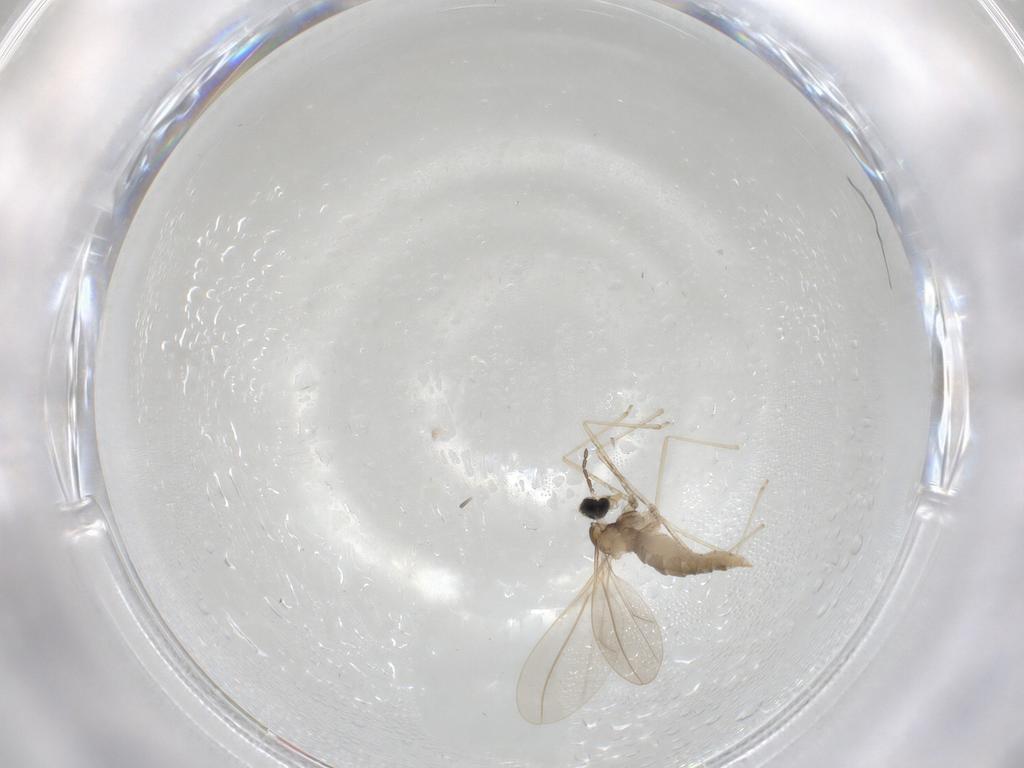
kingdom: Animalia
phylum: Arthropoda
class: Insecta
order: Diptera
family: Cecidomyiidae
